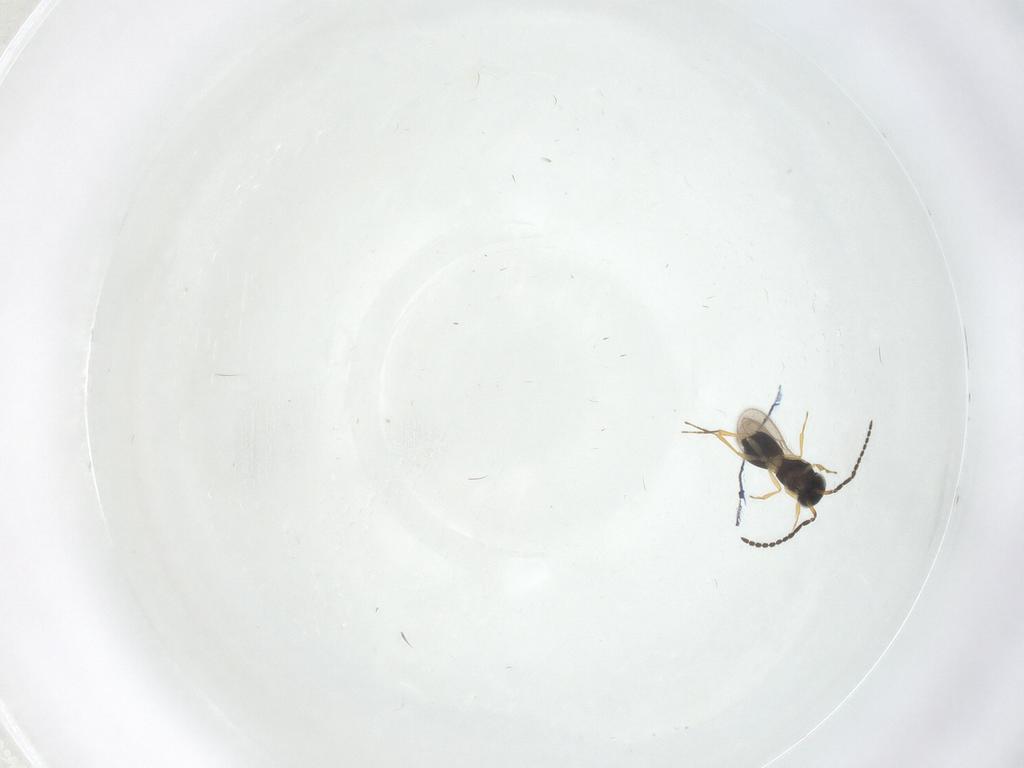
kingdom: Animalia
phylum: Arthropoda
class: Insecta
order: Hymenoptera
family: Scelionidae
